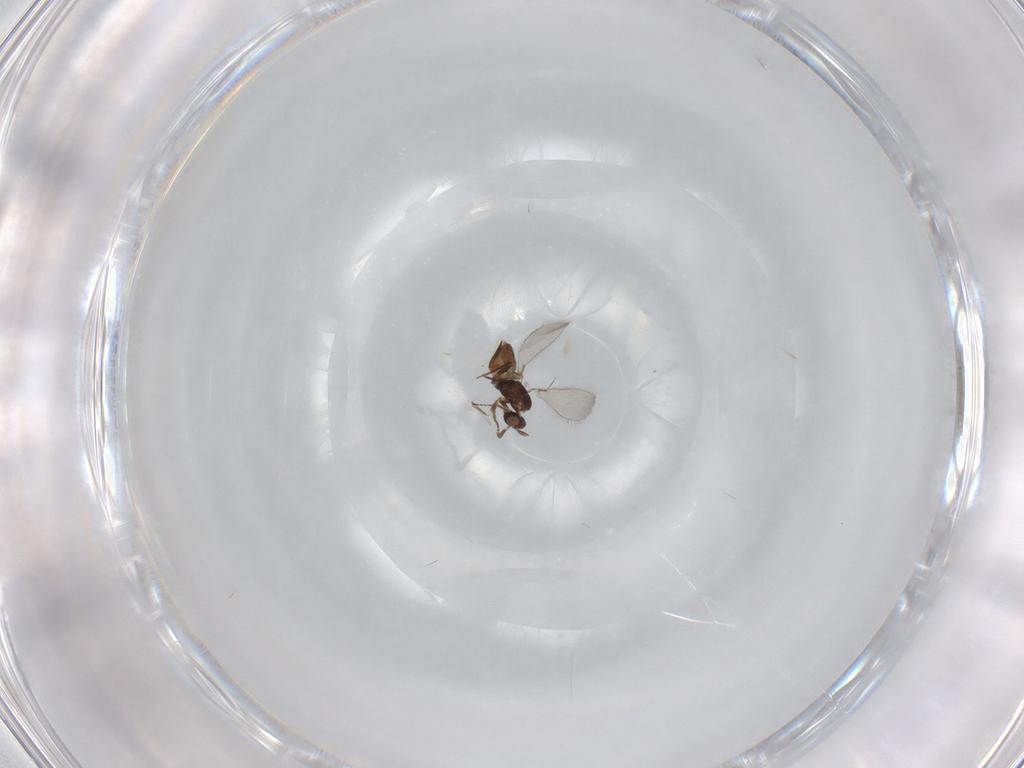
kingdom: Animalia
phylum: Arthropoda
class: Insecta
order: Hymenoptera
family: Mymaridae
